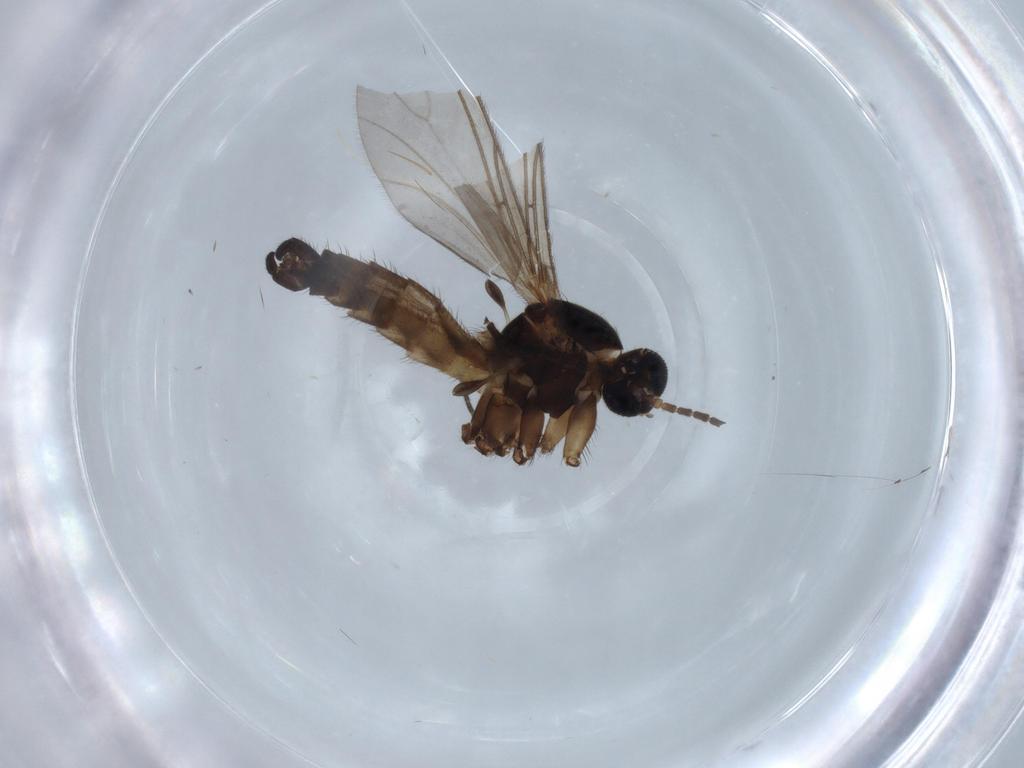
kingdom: Animalia
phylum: Arthropoda
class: Insecta
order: Diptera
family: Sciaridae
